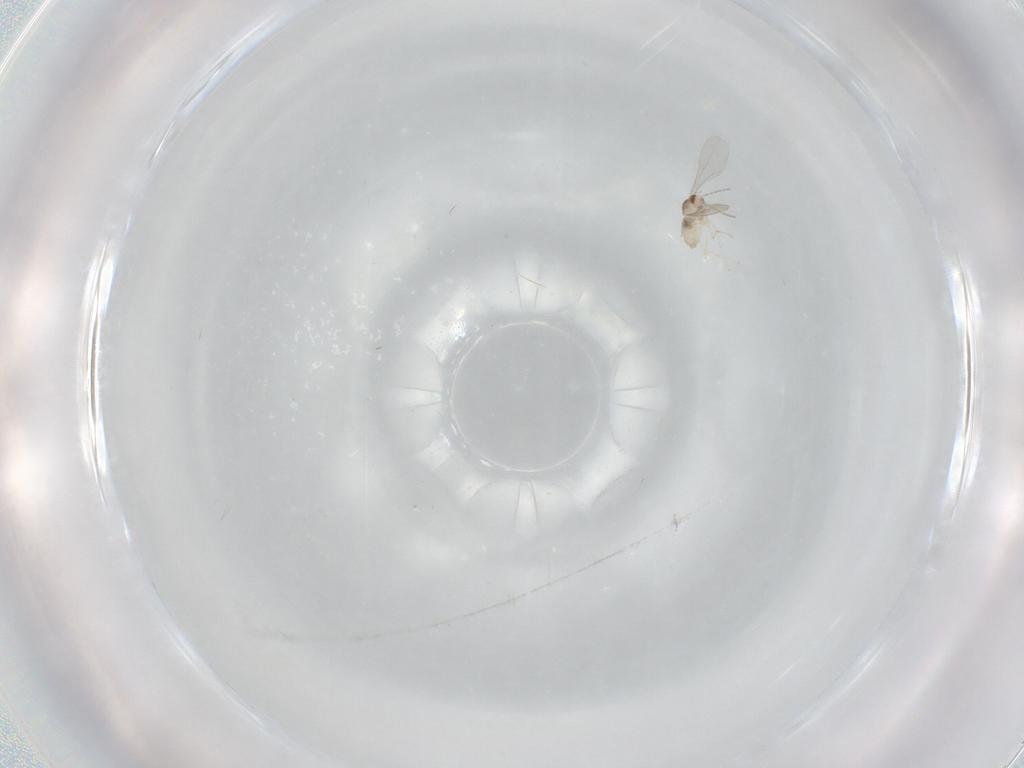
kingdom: Animalia
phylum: Arthropoda
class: Insecta
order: Diptera
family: Cecidomyiidae
